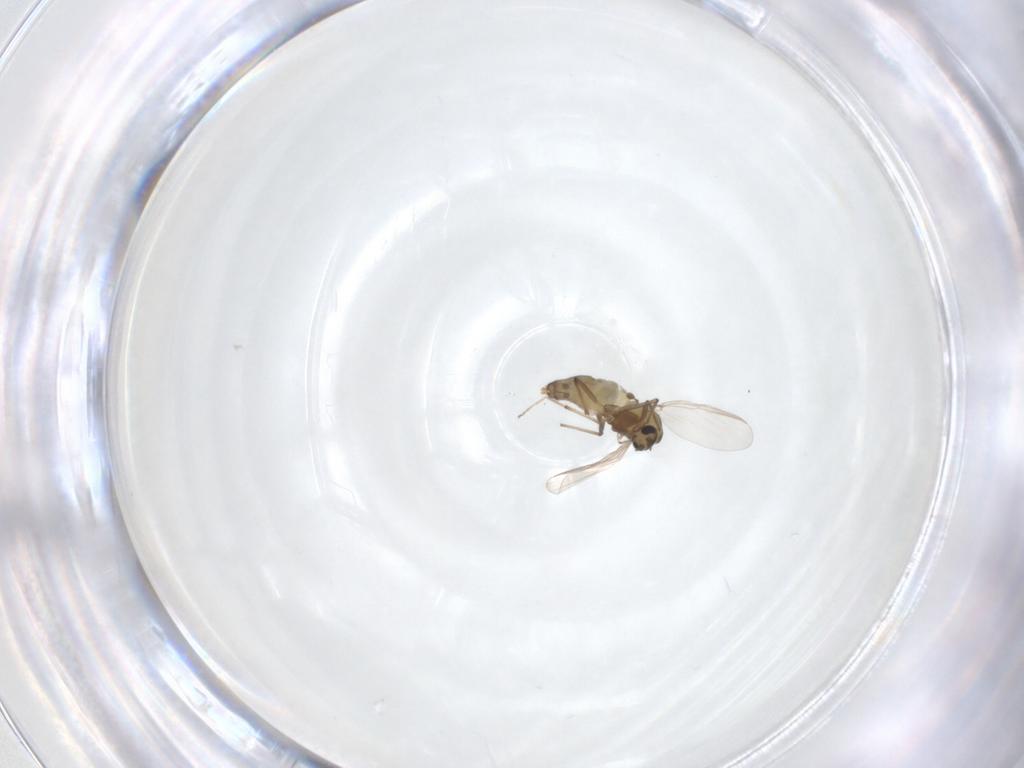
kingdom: Animalia
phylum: Arthropoda
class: Insecta
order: Diptera
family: Chironomidae
